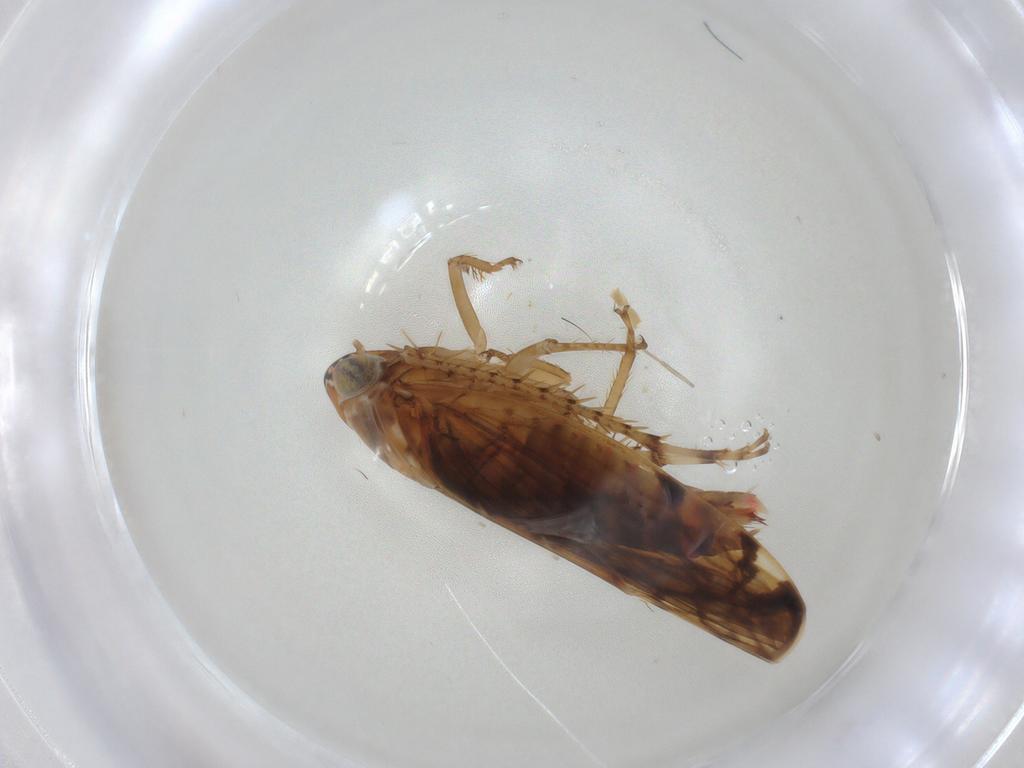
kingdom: Animalia
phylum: Arthropoda
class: Insecta
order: Hemiptera
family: Cicadellidae
